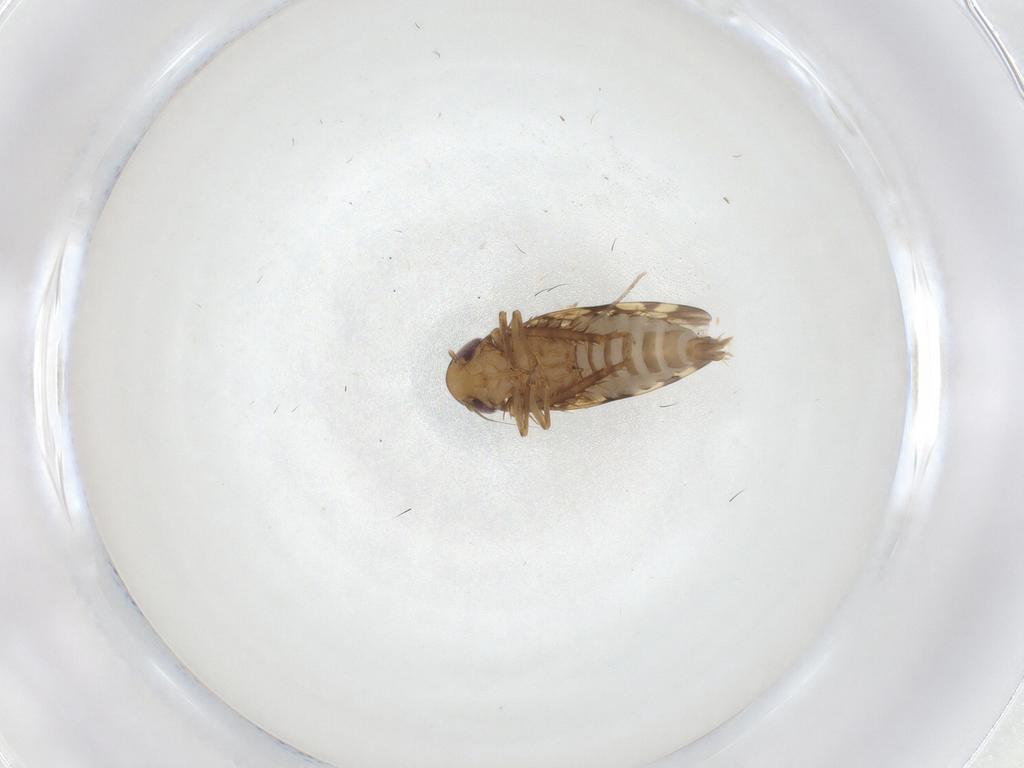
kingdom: Animalia
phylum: Arthropoda
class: Insecta
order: Hemiptera
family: Cicadellidae
